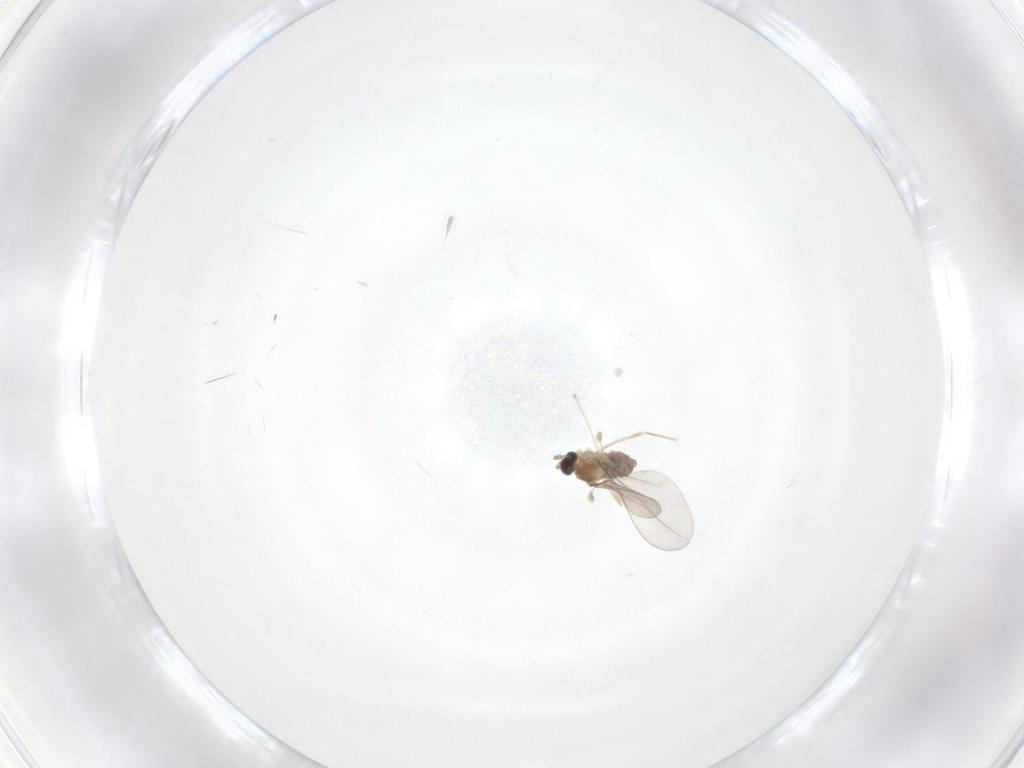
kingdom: Animalia
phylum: Arthropoda
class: Insecta
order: Diptera
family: Cecidomyiidae
